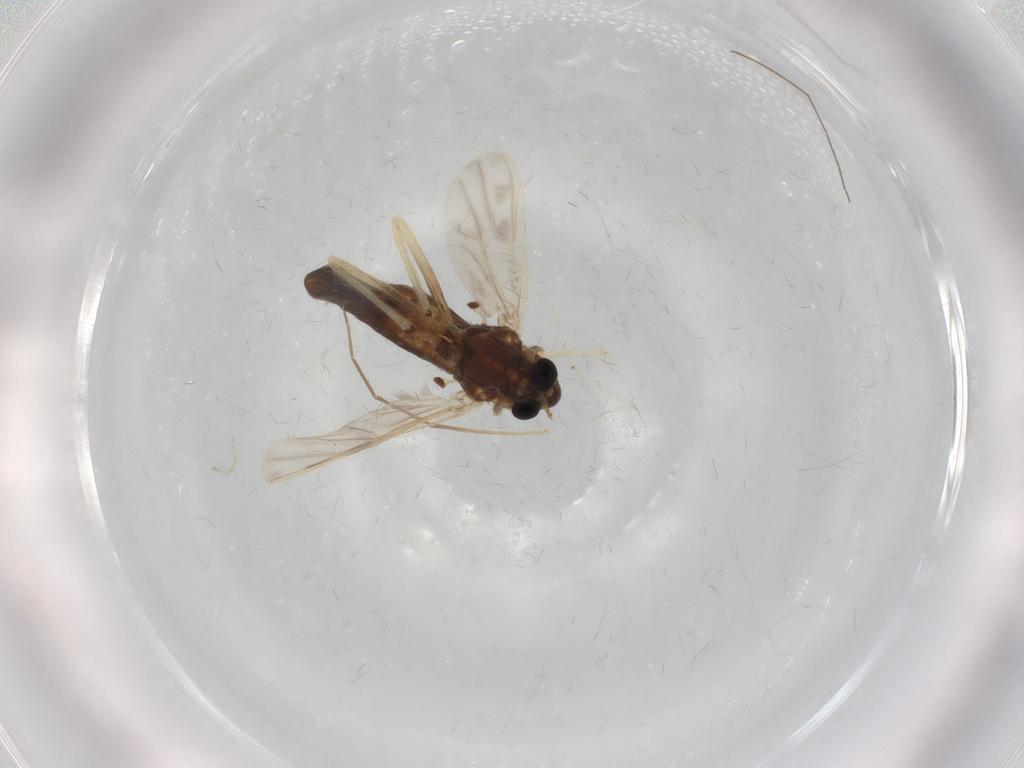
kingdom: Animalia
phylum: Arthropoda
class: Insecta
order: Diptera
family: Chironomidae
